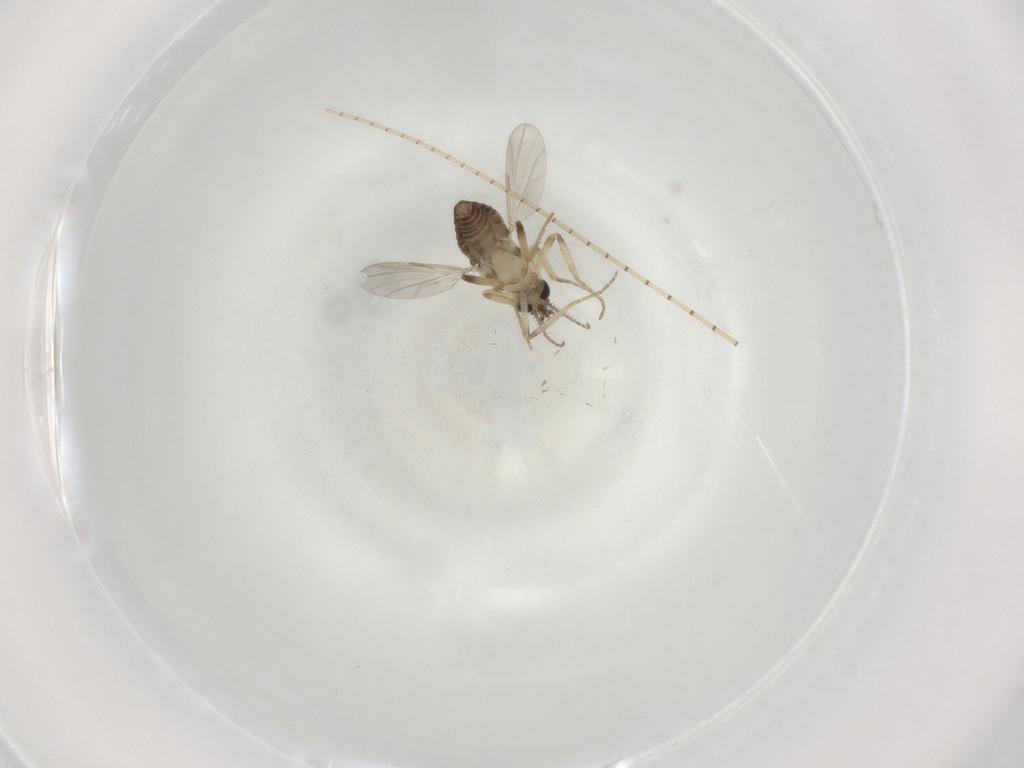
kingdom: Animalia
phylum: Arthropoda
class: Insecta
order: Diptera
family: Ceratopogonidae
